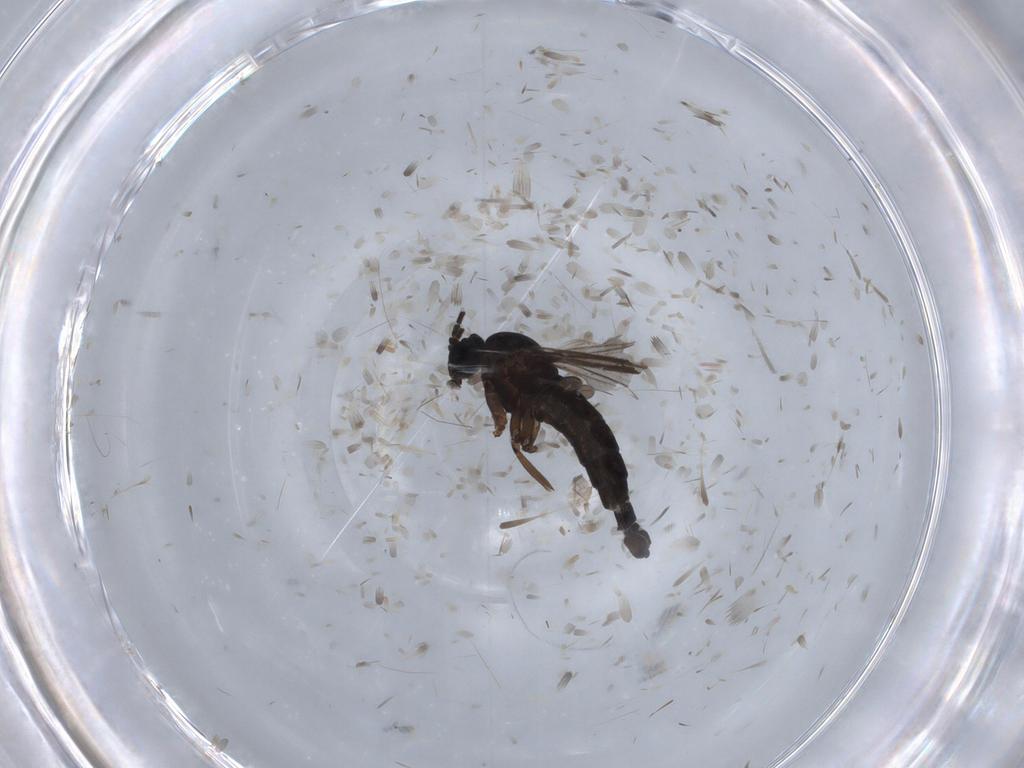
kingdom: Animalia
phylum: Arthropoda
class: Insecta
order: Diptera
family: Sciaridae
